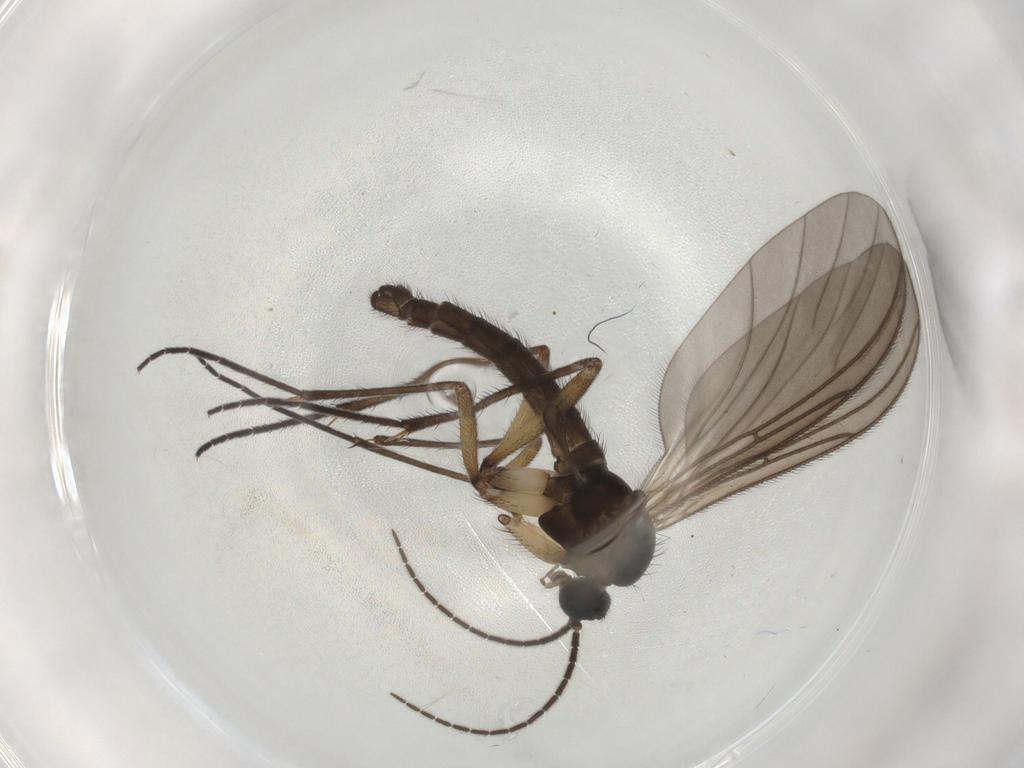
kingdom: Animalia
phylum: Arthropoda
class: Insecta
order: Diptera
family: Sciaridae
